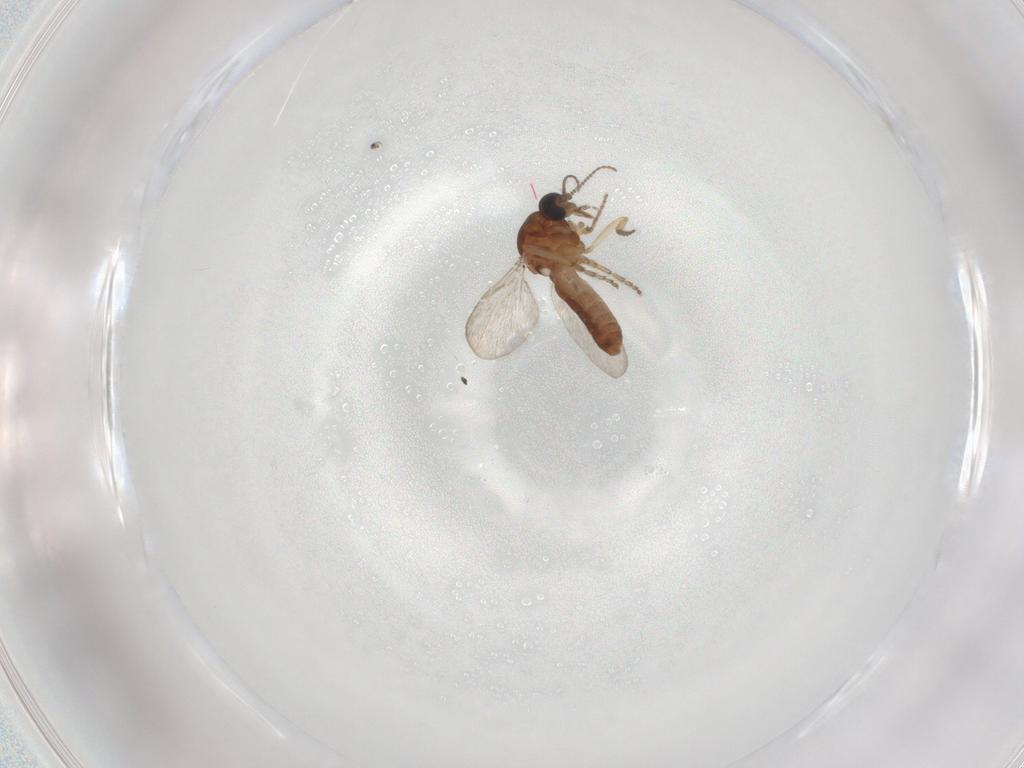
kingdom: Animalia
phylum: Arthropoda
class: Insecta
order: Diptera
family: Ceratopogonidae
